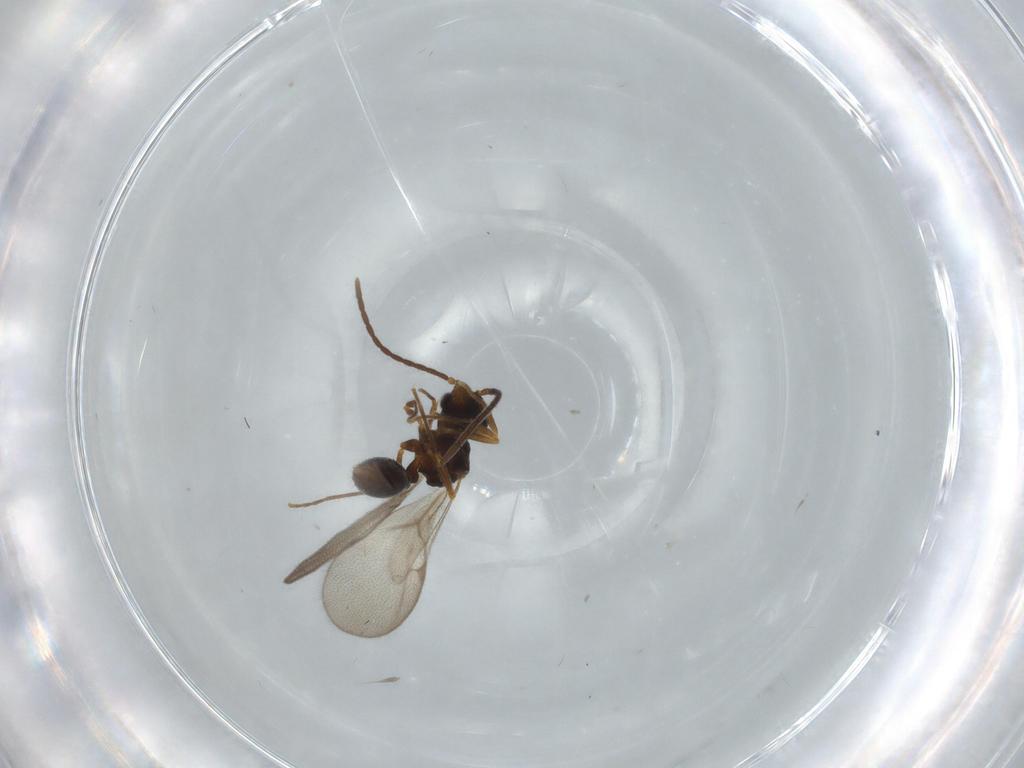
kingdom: Animalia
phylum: Arthropoda
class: Insecta
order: Hymenoptera
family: Formicidae
